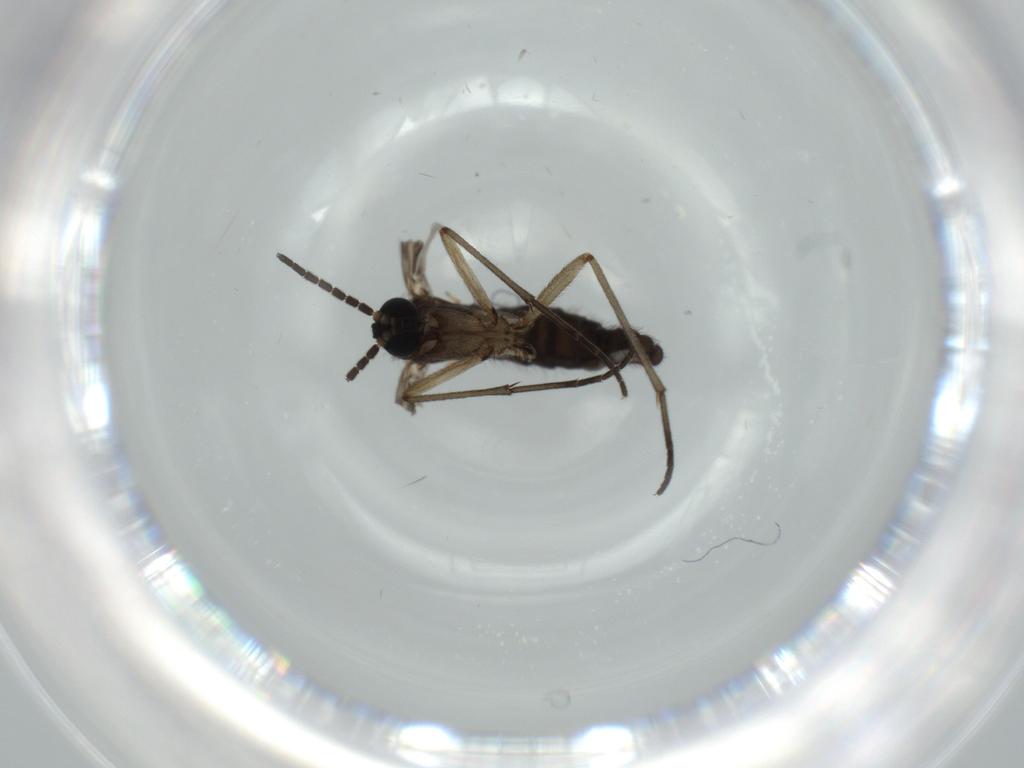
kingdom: Animalia
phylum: Arthropoda
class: Insecta
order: Diptera
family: Sciaridae
